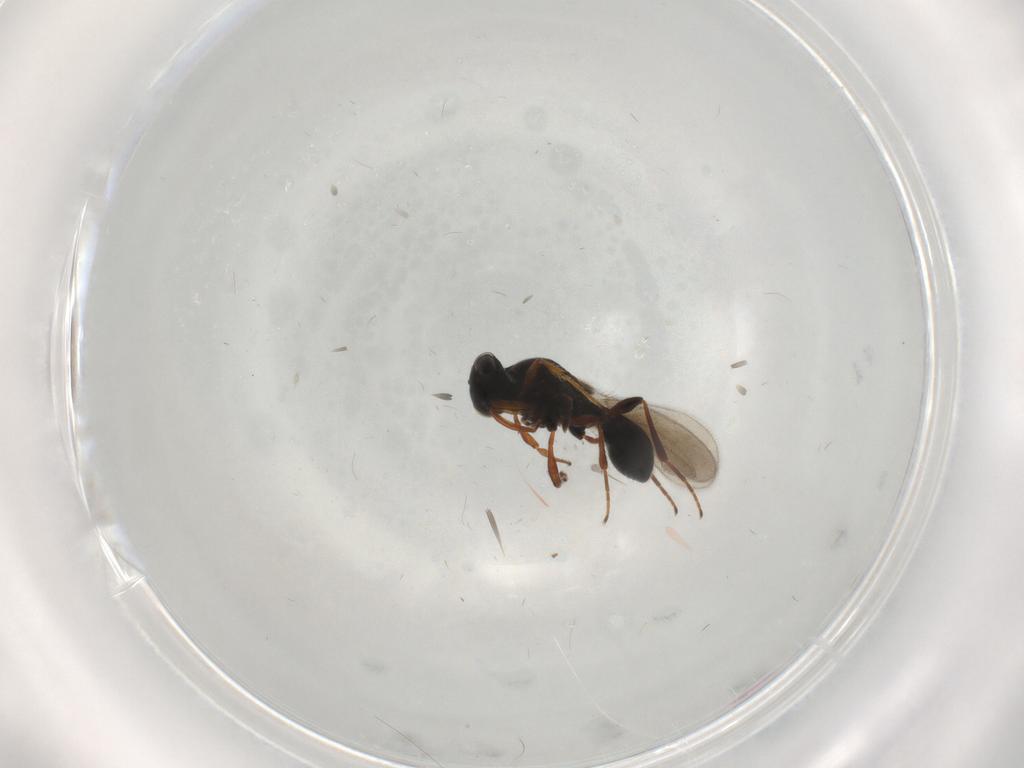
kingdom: Animalia
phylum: Arthropoda
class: Insecta
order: Hymenoptera
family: Platygastridae
